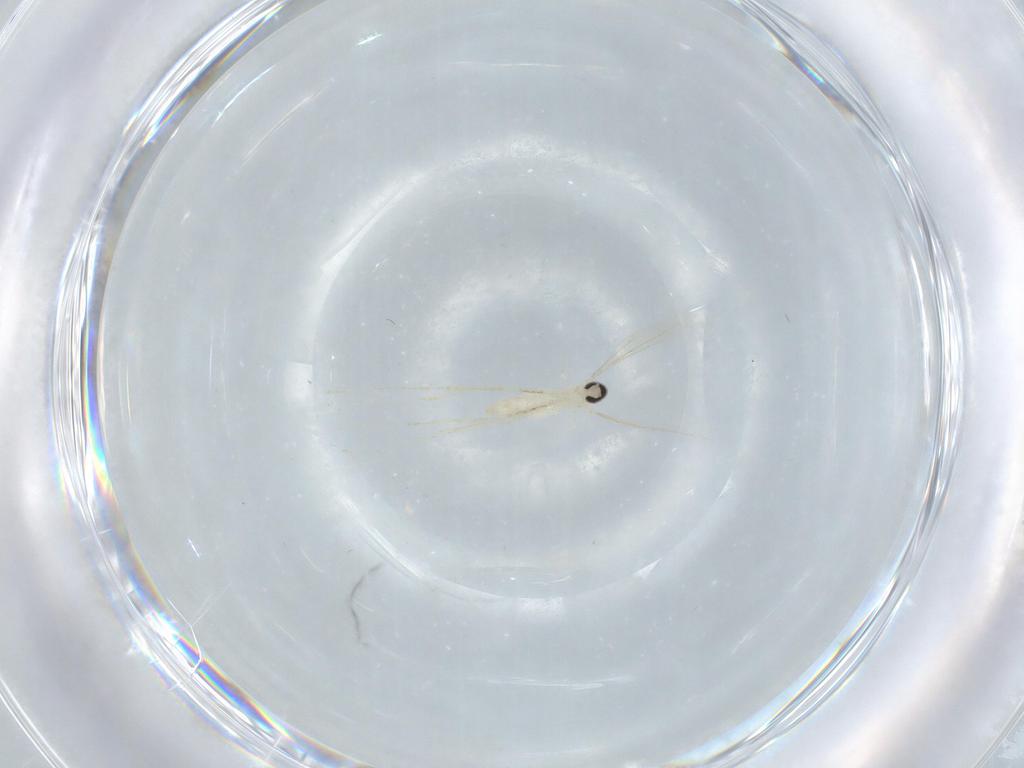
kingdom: Animalia
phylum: Arthropoda
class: Insecta
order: Diptera
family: Cecidomyiidae
